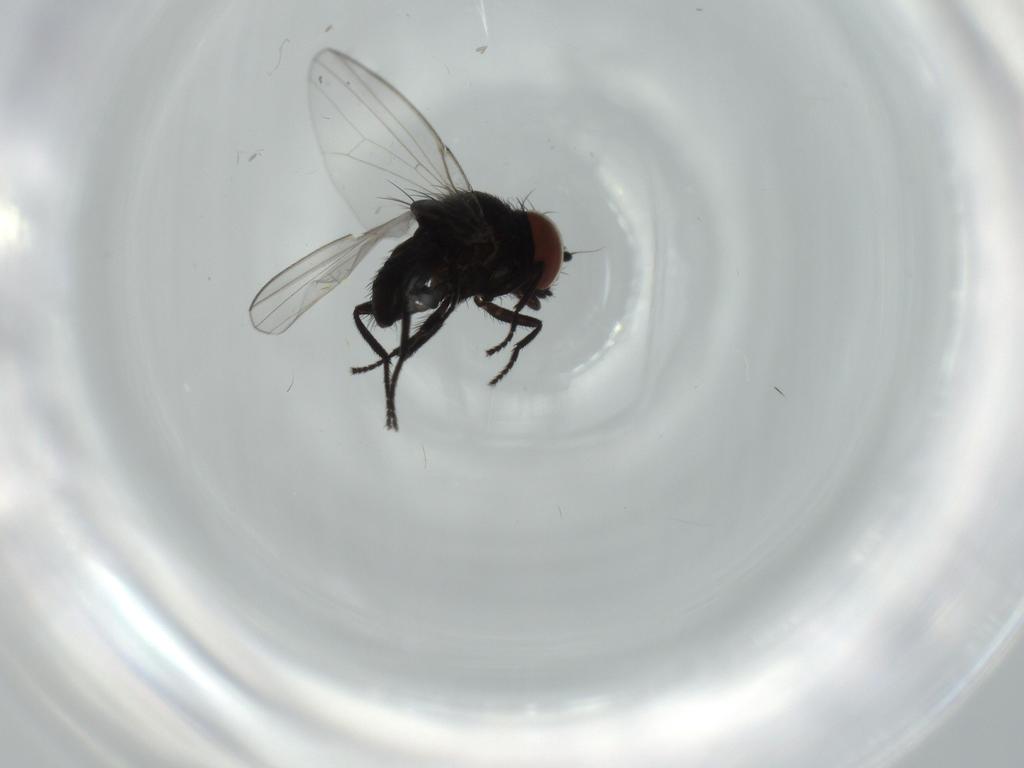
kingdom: Animalia
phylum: Arthropoda
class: Insecta
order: Diptera
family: Milichiidae
